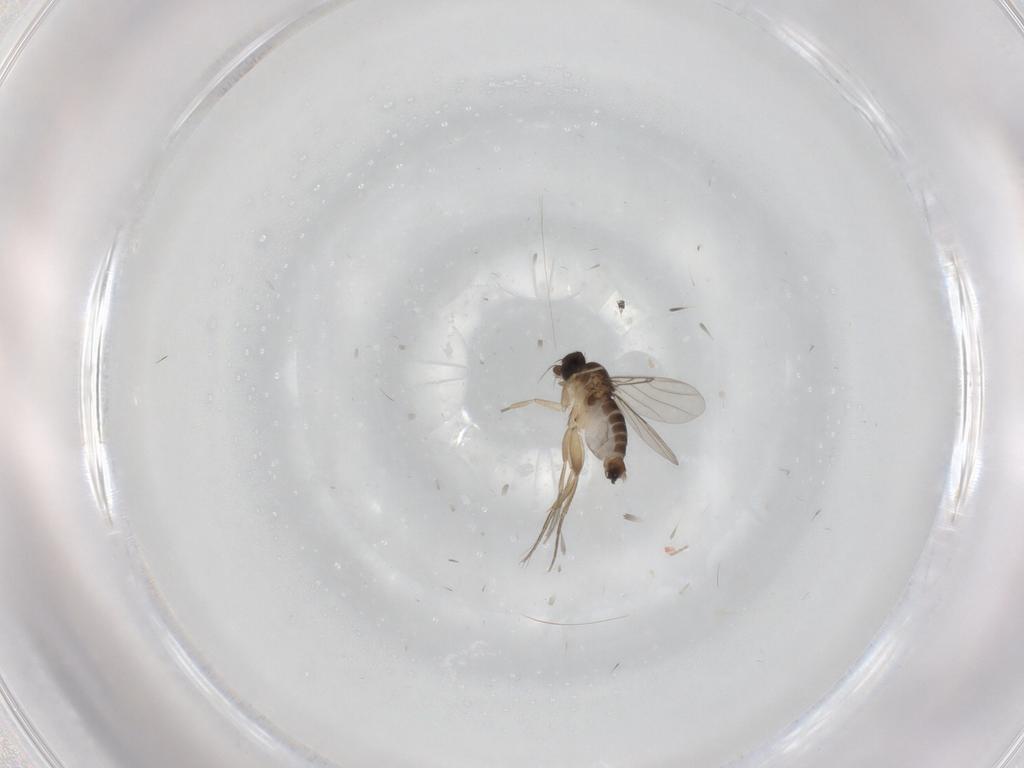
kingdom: Animalia
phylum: Arthropoda
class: Insecta
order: Diptera
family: Phoridae
